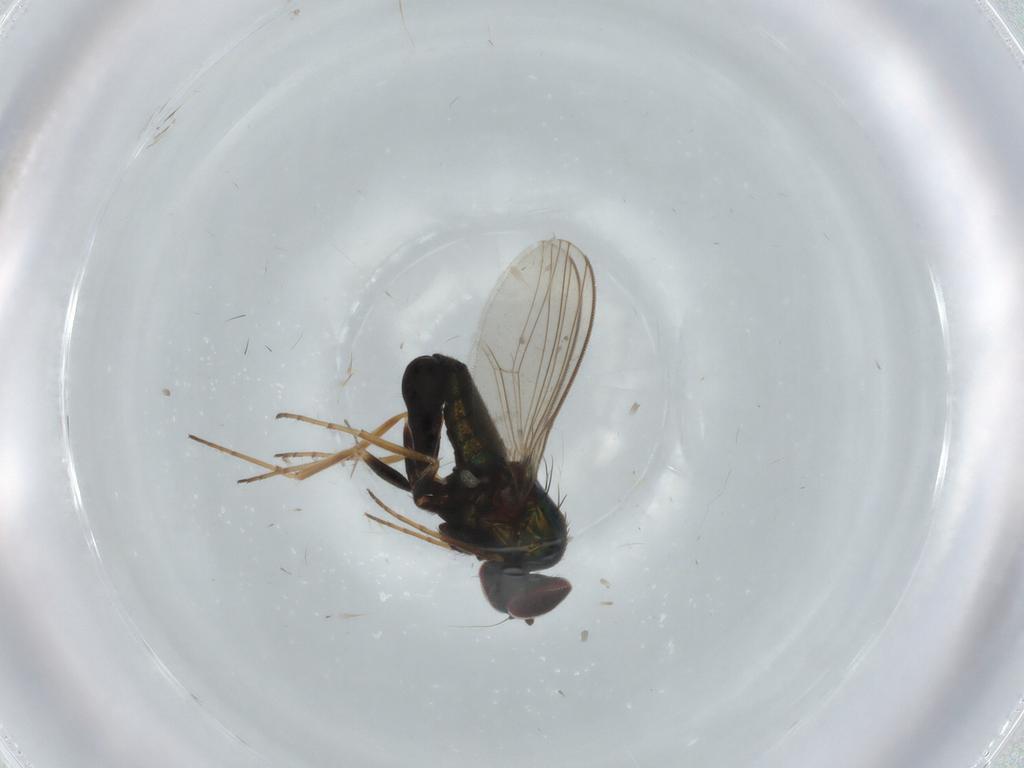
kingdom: Animalia
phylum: Arthropoda
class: Insecta
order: Diptera
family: Dolichopodidae
